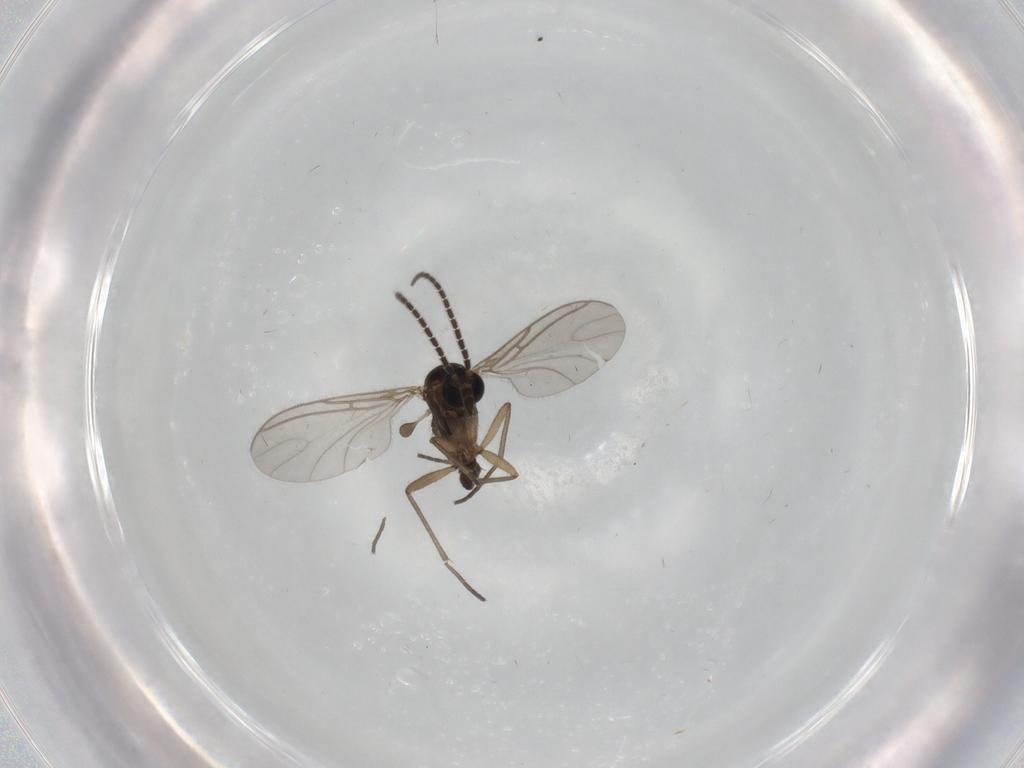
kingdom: Animalia
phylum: Arthropoda
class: Insecta
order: Diptera
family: Sciaridae
